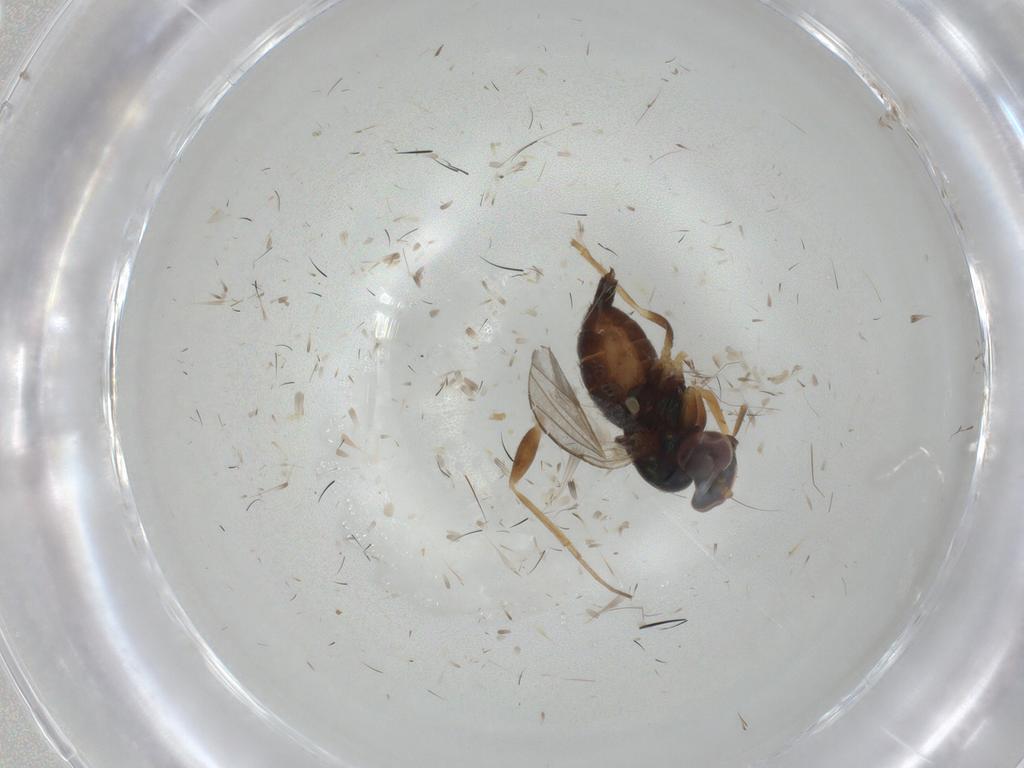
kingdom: Animalia
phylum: Arthropoda
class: Insecta
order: Diptera
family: Dolichopodidae
